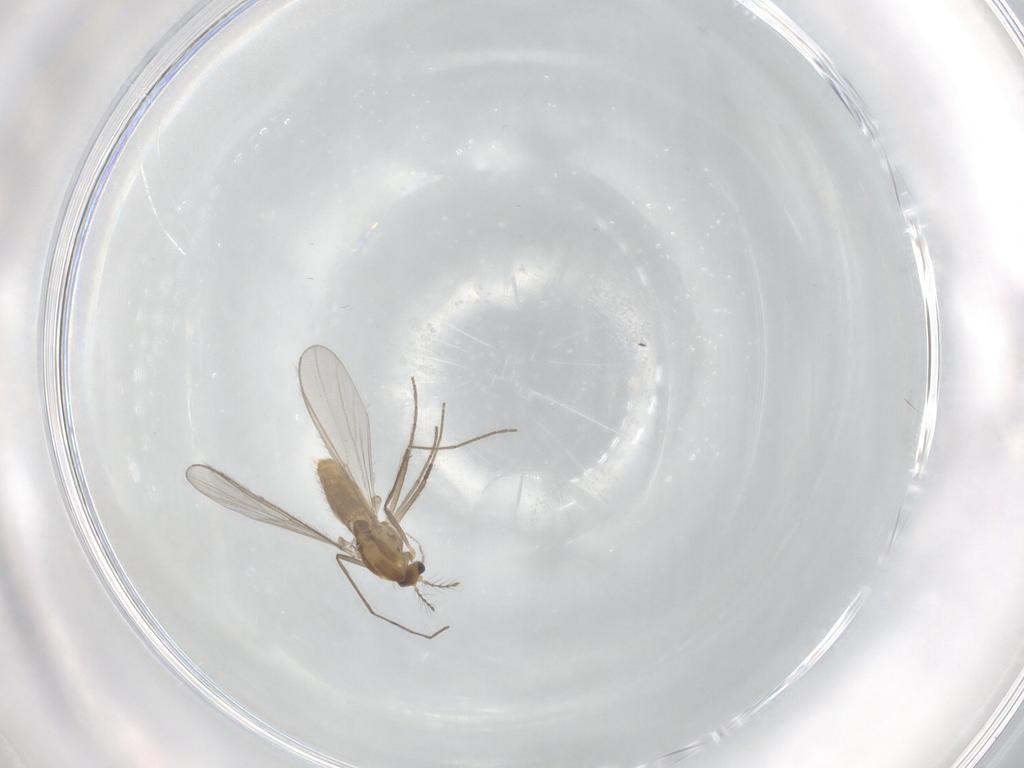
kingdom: Animalia
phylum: Arthropoda
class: Insecta
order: Diptera
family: Chironomidae
